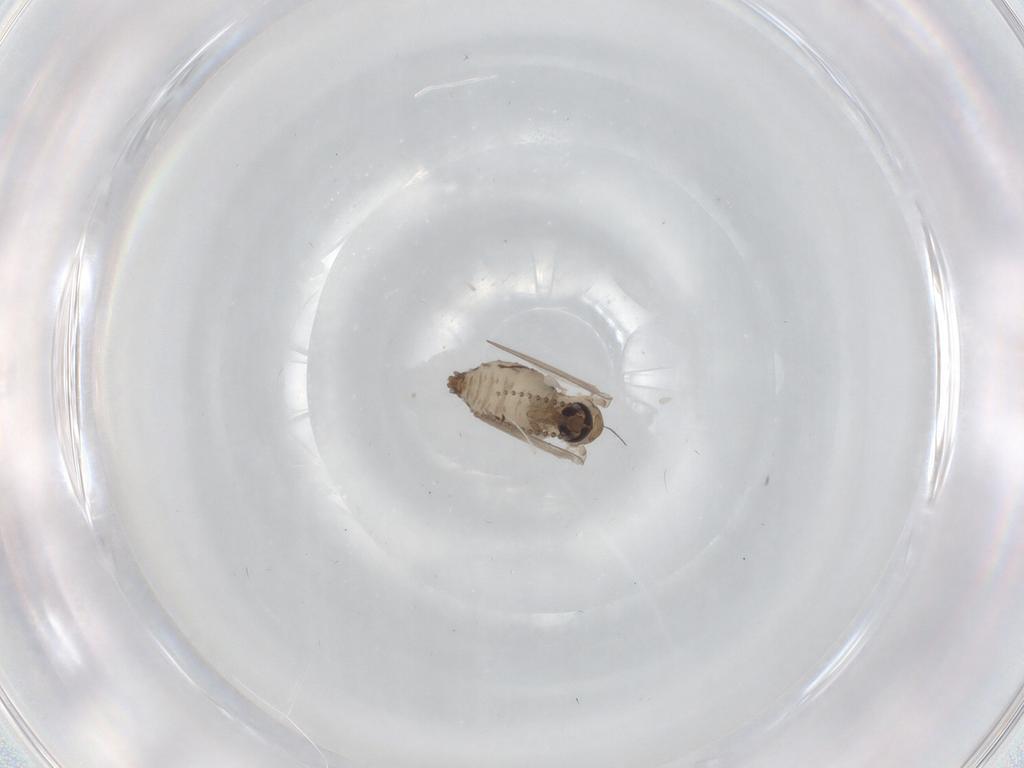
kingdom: Animalia
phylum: Arthropoda
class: Insecta
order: Diptera
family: Psychodidae
